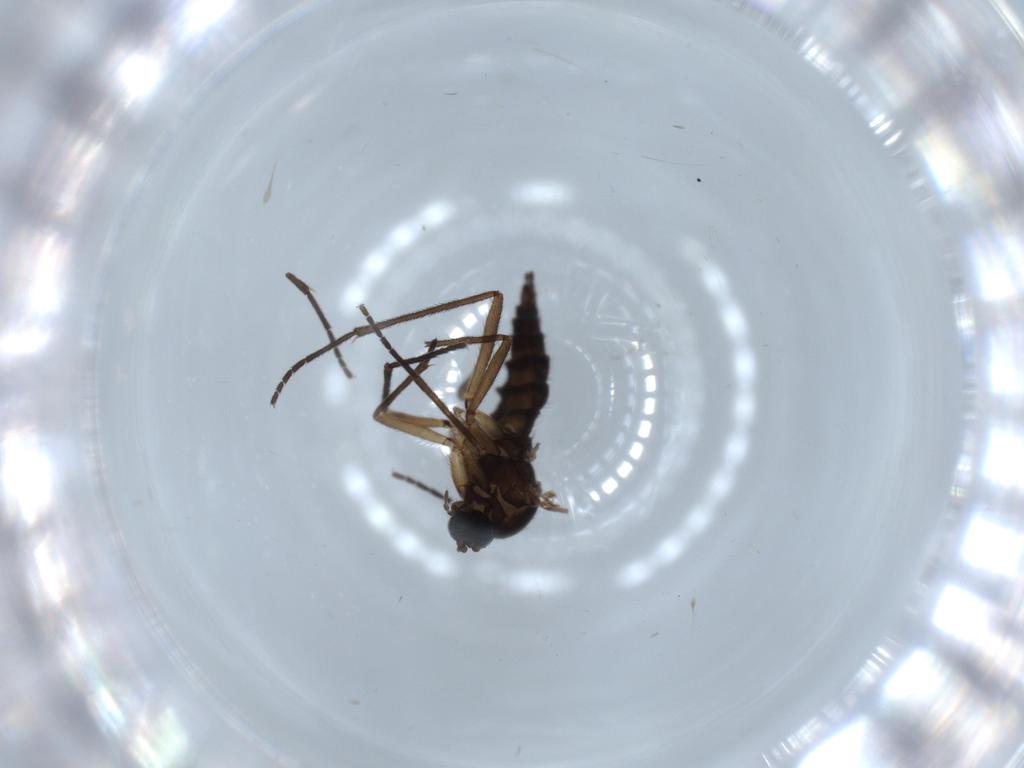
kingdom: Animalia
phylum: Arthropoda
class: Insecta
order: Diptera
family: Sciaridae
